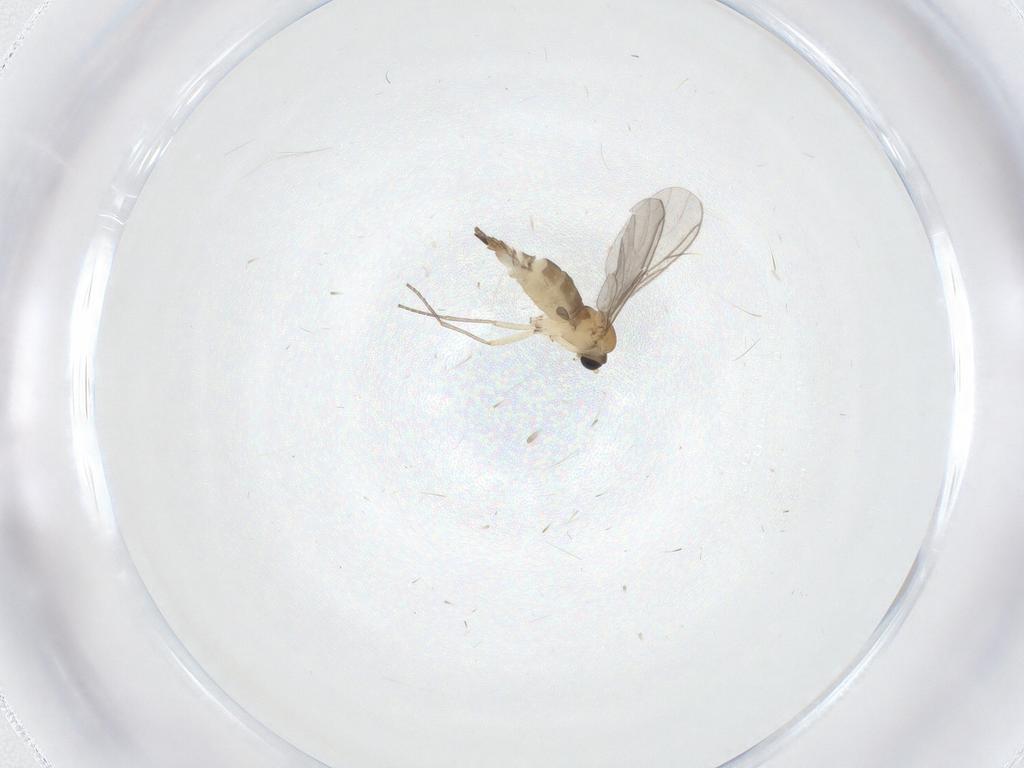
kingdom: Animalia
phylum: Arthropoda
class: Insecta
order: Diptera
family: Sciaridae
